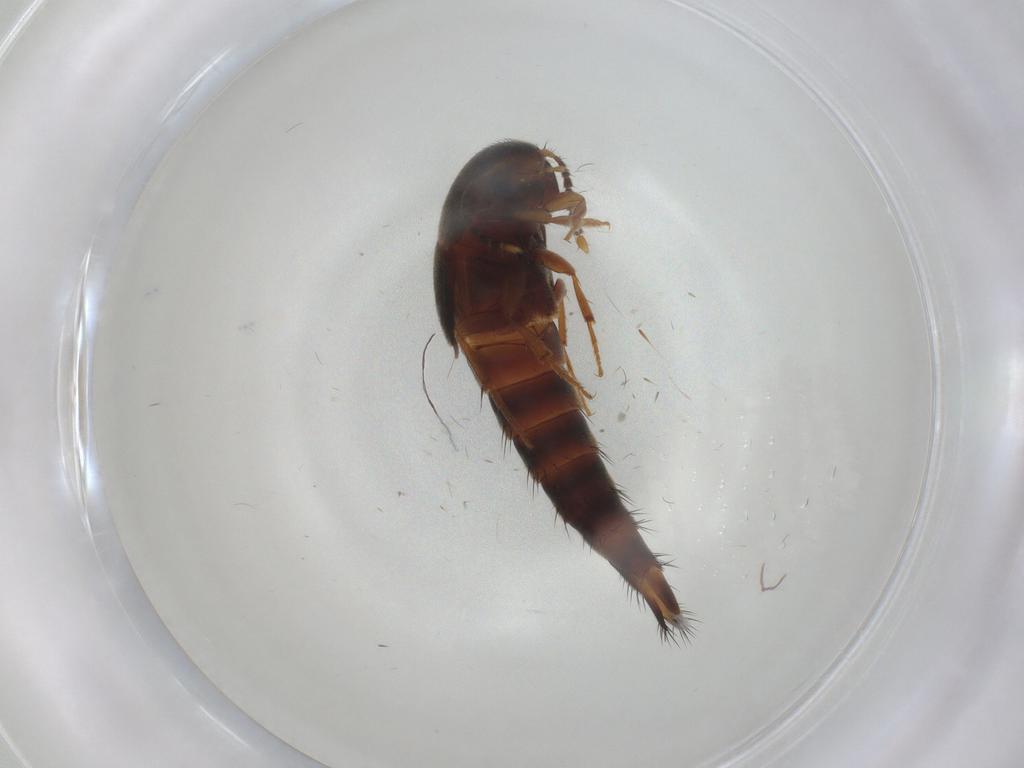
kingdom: Animalia
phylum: Arthropoda
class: Insecta
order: Coleoptera
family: Staphylinidae
